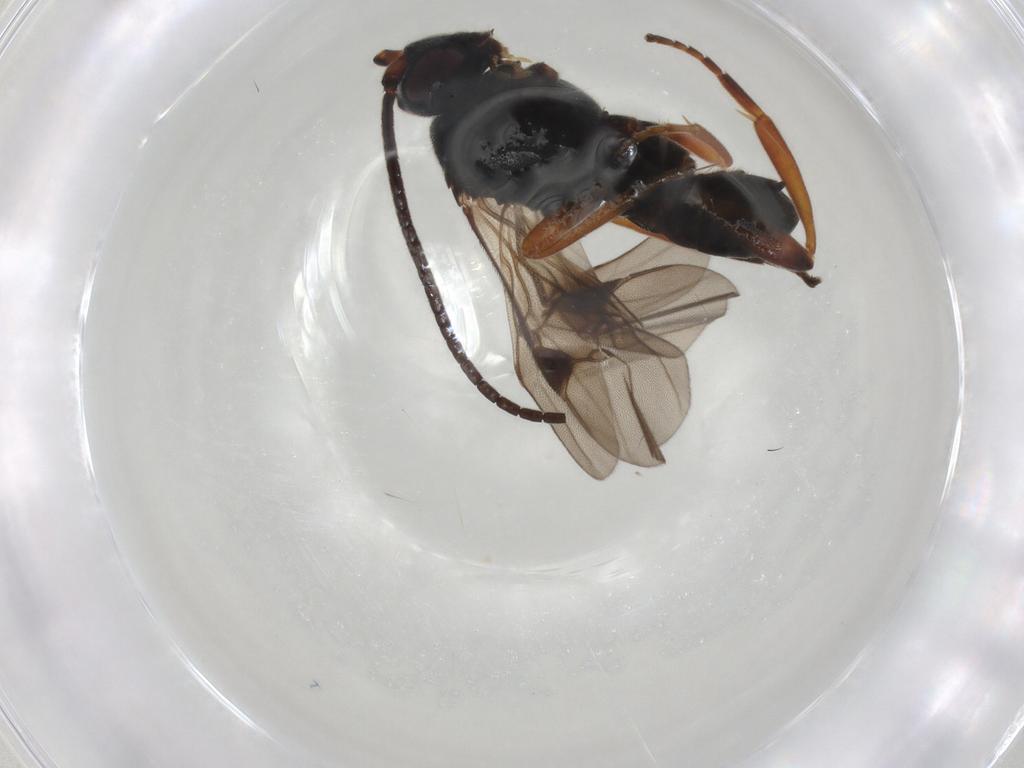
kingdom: Animalia
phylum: Arthropoda
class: Insecta
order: Hymenoptera
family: Braconidae
